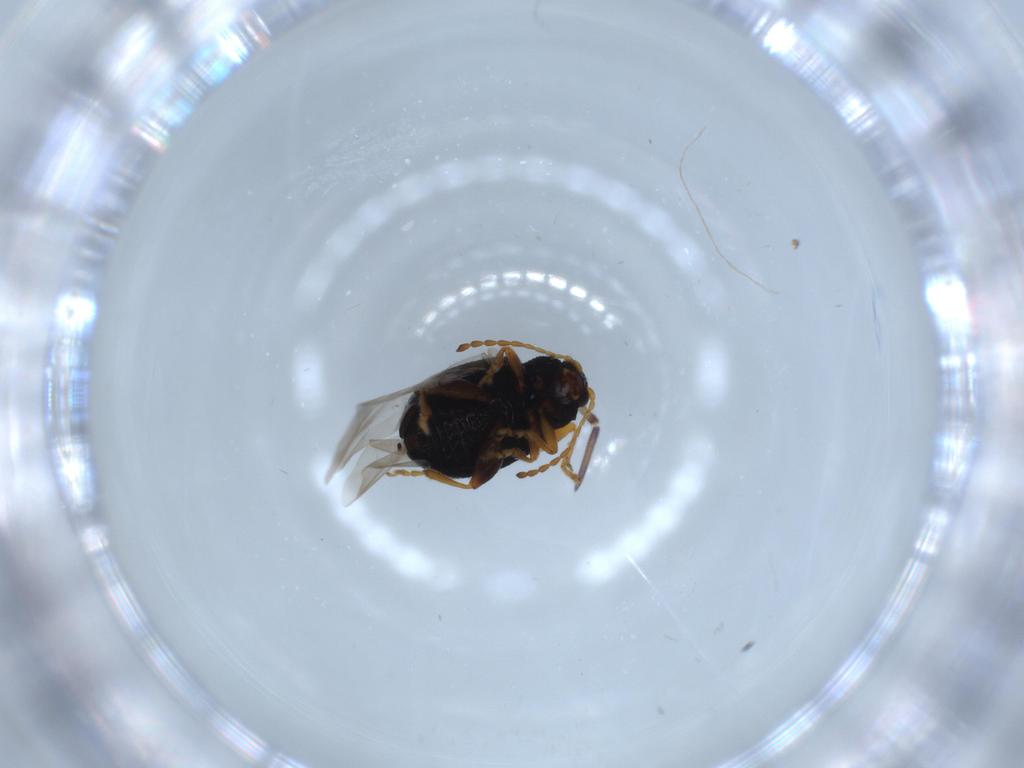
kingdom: Animalia
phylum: Arthropoda
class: Insecta
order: Coleoptera
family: Chrysomelidae
